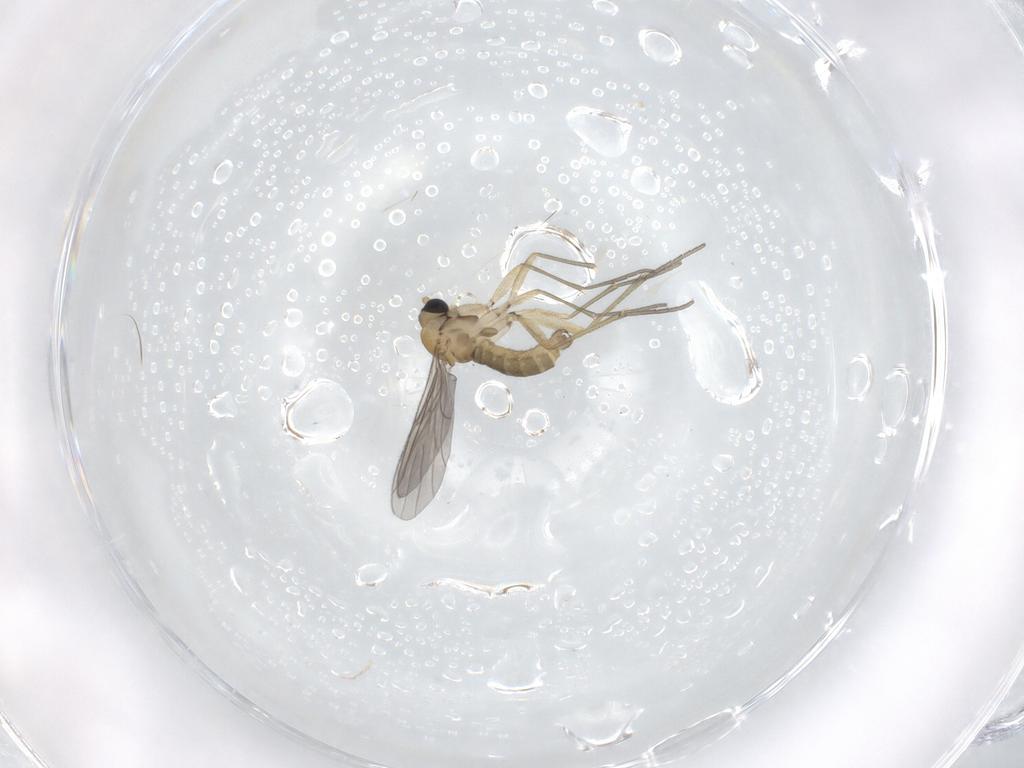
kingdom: Animalia
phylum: Arthropoda
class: Insecta
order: Diptera
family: Sciaridae
